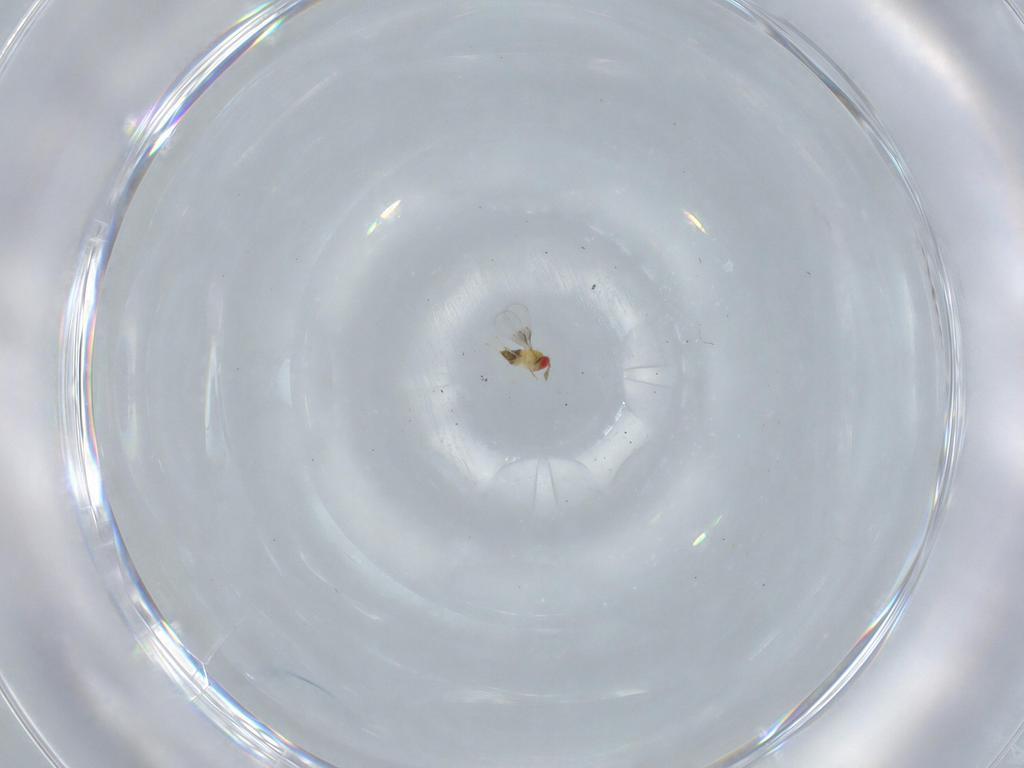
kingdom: Animalia
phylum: Arthropoda
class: Insecta
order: Hymenoptera
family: Trichogrammatidae
